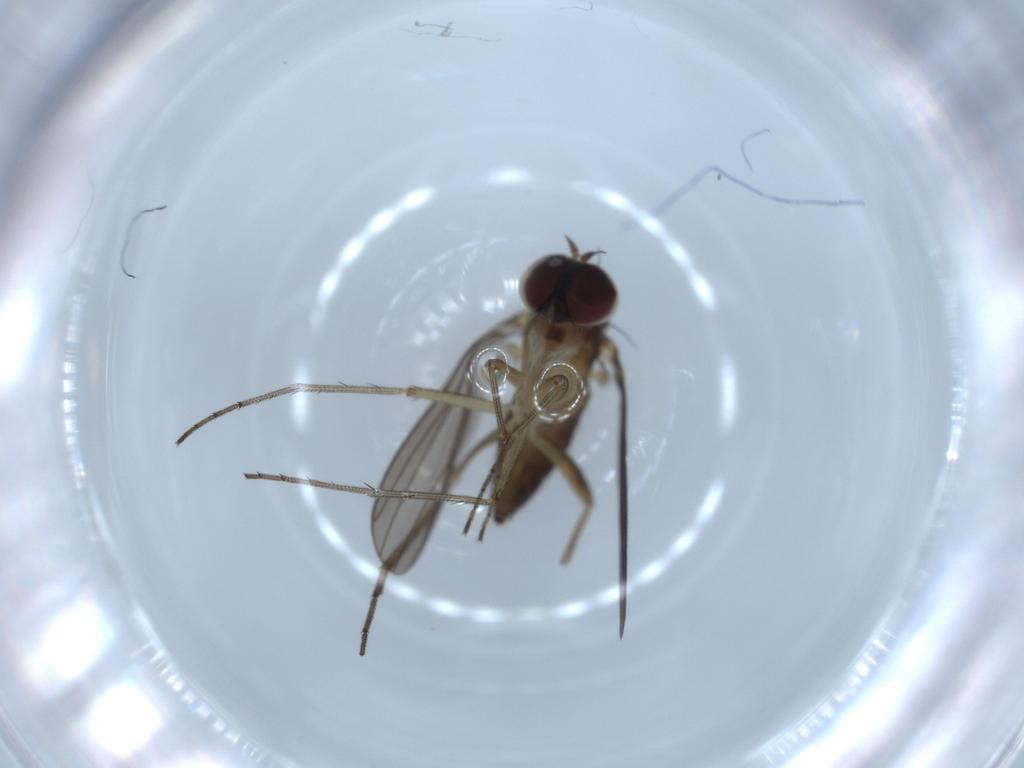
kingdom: Animalia
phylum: Arthropoda
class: Insecta
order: Diptera
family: Dolichopodidae
